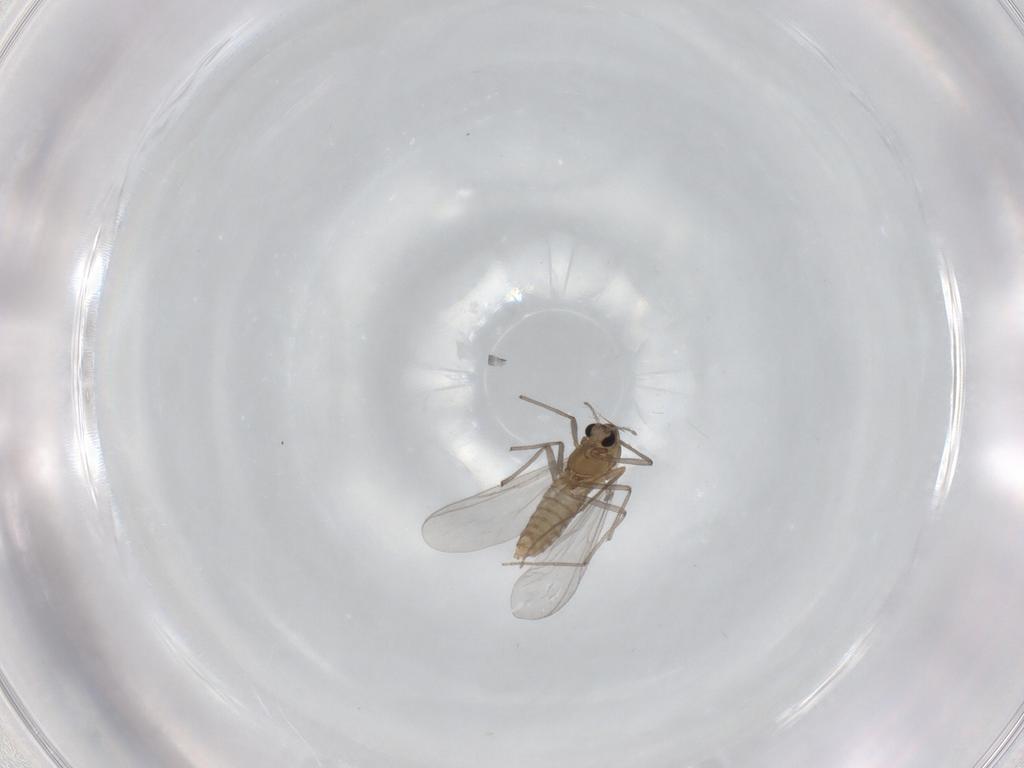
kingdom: Animalia
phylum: Arthropoda
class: Insecta
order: Diptera
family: Chironomidae
